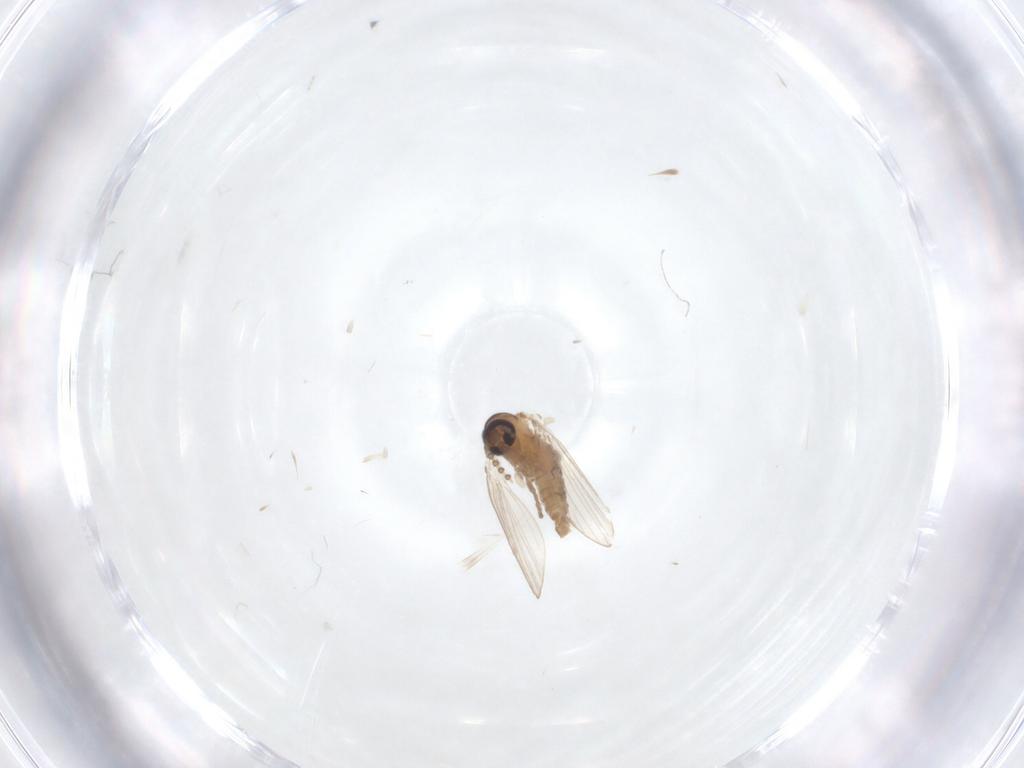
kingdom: Animalia
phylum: Arthropoda
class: Insecta
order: Diptera
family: Psychodidae
